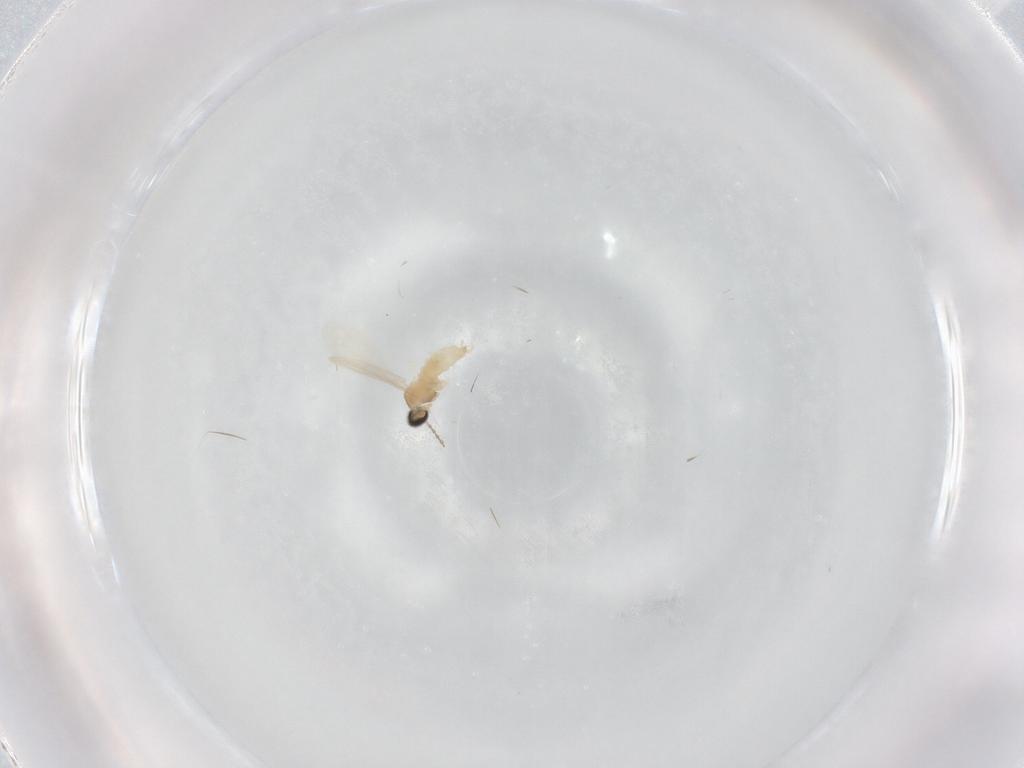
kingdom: Animalia
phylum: Arthropoda
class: Insecta
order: Diptera
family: Cecidomyiidae
